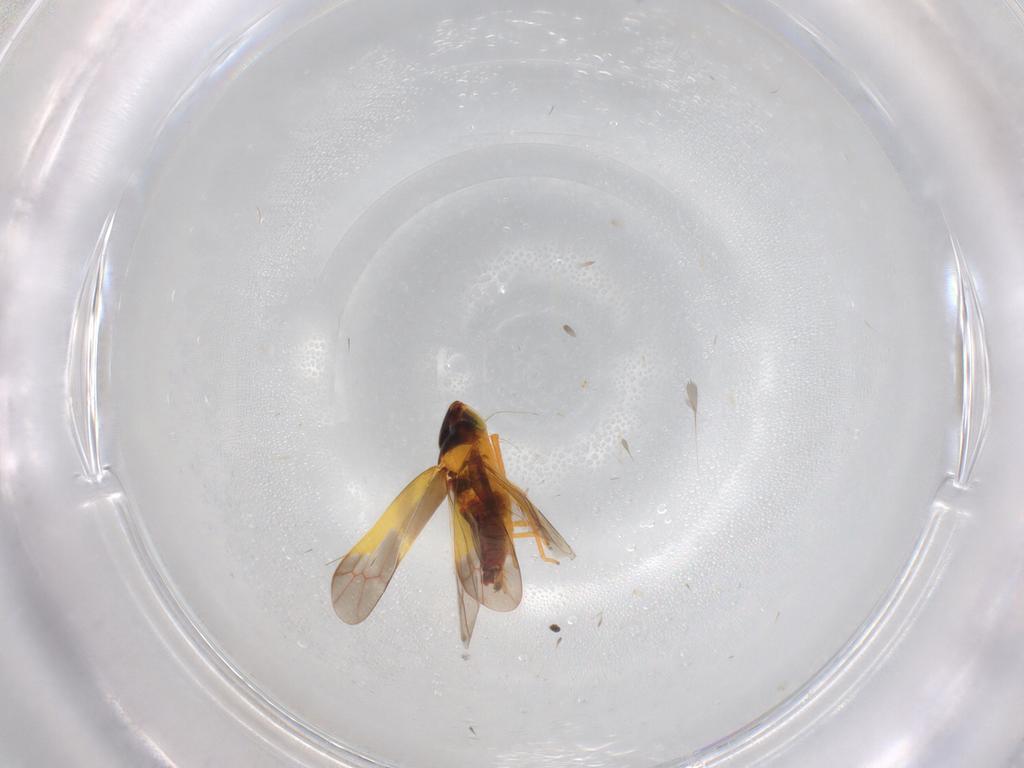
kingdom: Animalia
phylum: Arthropoda
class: Insecta
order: Hemiptera
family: Cicadellidae
